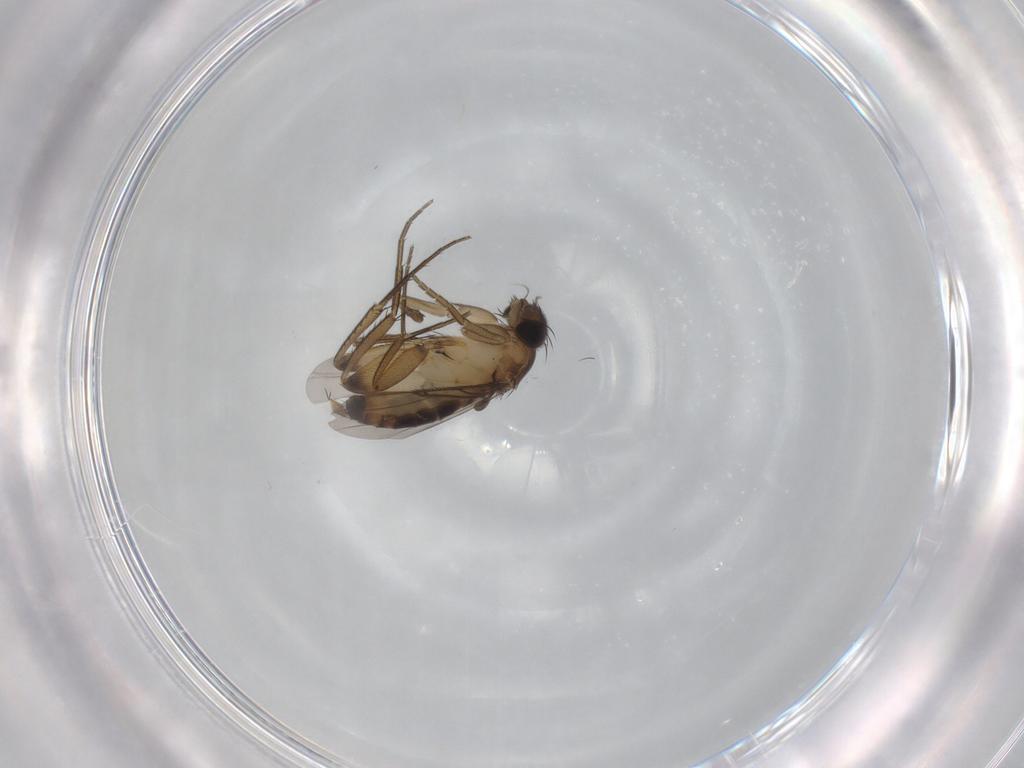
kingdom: Animalia
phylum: Arthropoda
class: Insecta
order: Diptera
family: Phoridae
